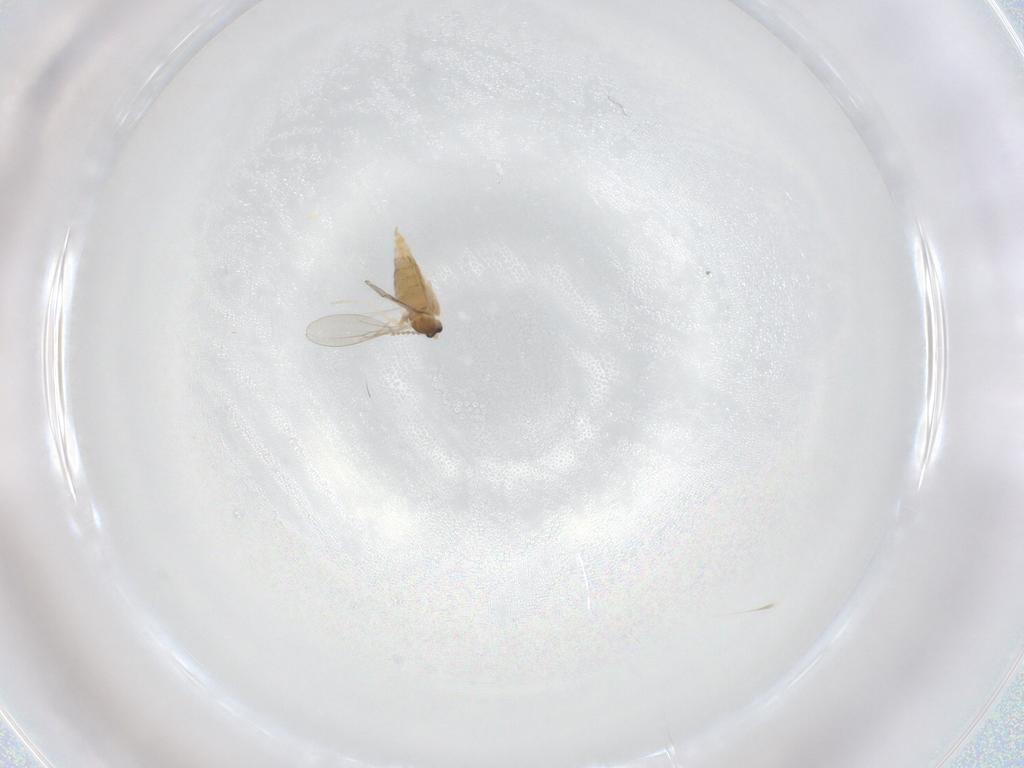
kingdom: Animalia
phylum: Arthropoda
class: Insecta
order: Diptera
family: Cecidomyiidae
